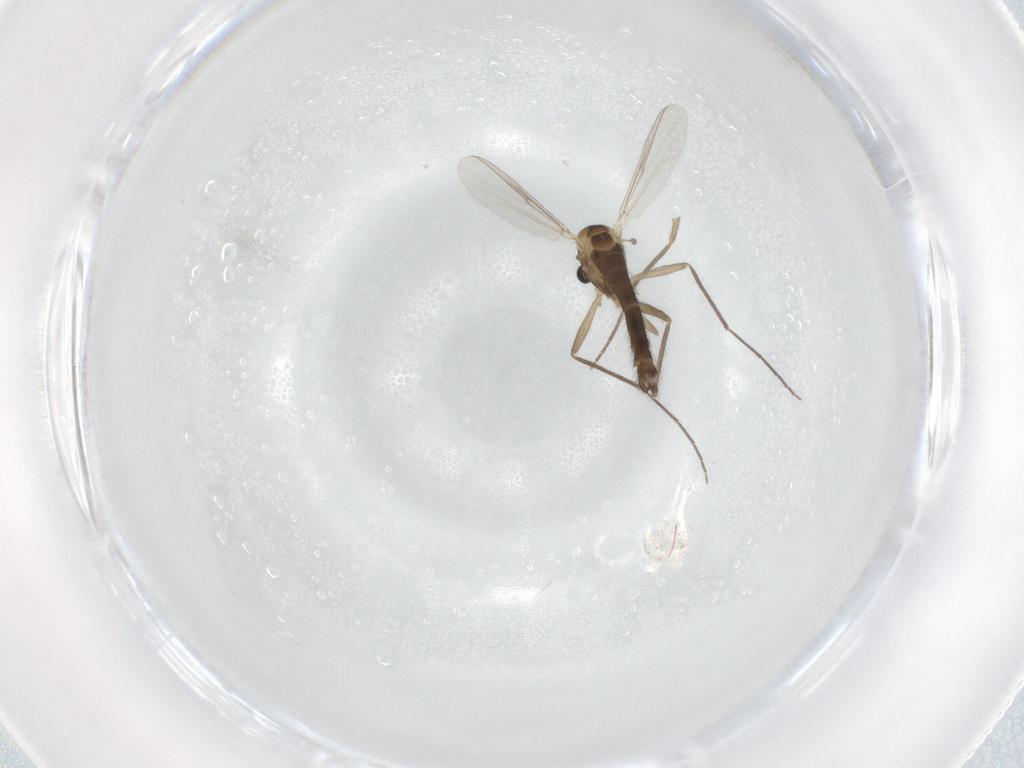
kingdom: Animalia
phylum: Arthropoda
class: Insecta
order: Diptera
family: Chironomidae
